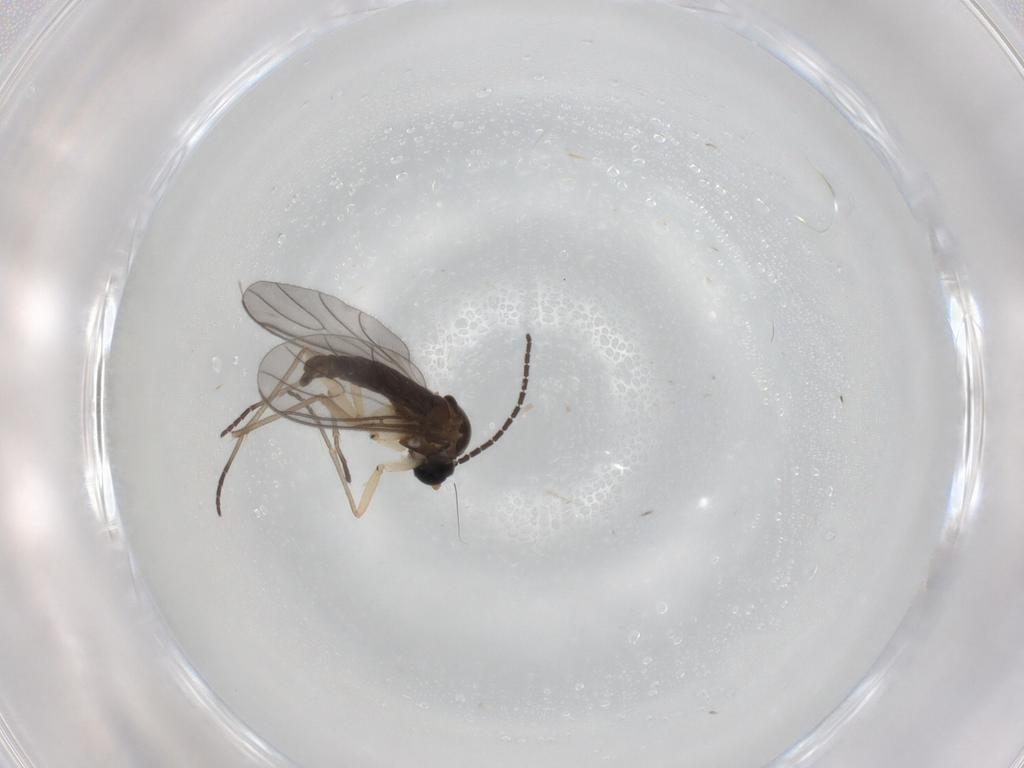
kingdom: Animalia
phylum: Arthropoda
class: Insecta
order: Diptera
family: Sciaridae
